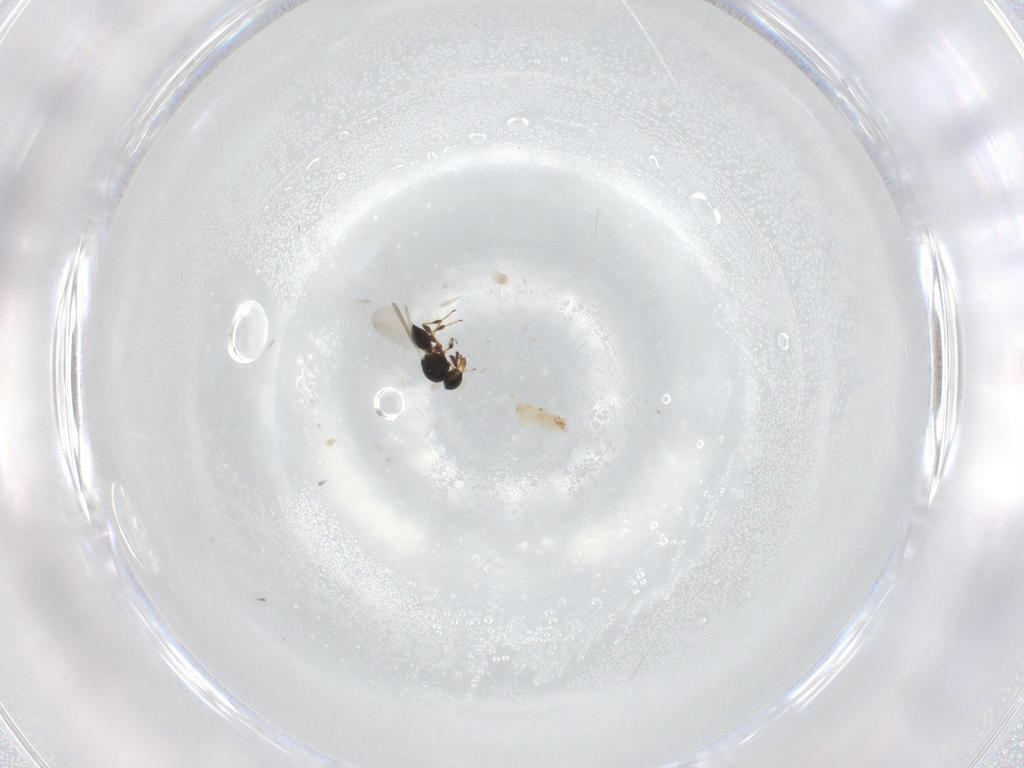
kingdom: Animalia
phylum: Arthropoda
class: Insecta
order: Hymenoptera
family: Platygastridae
